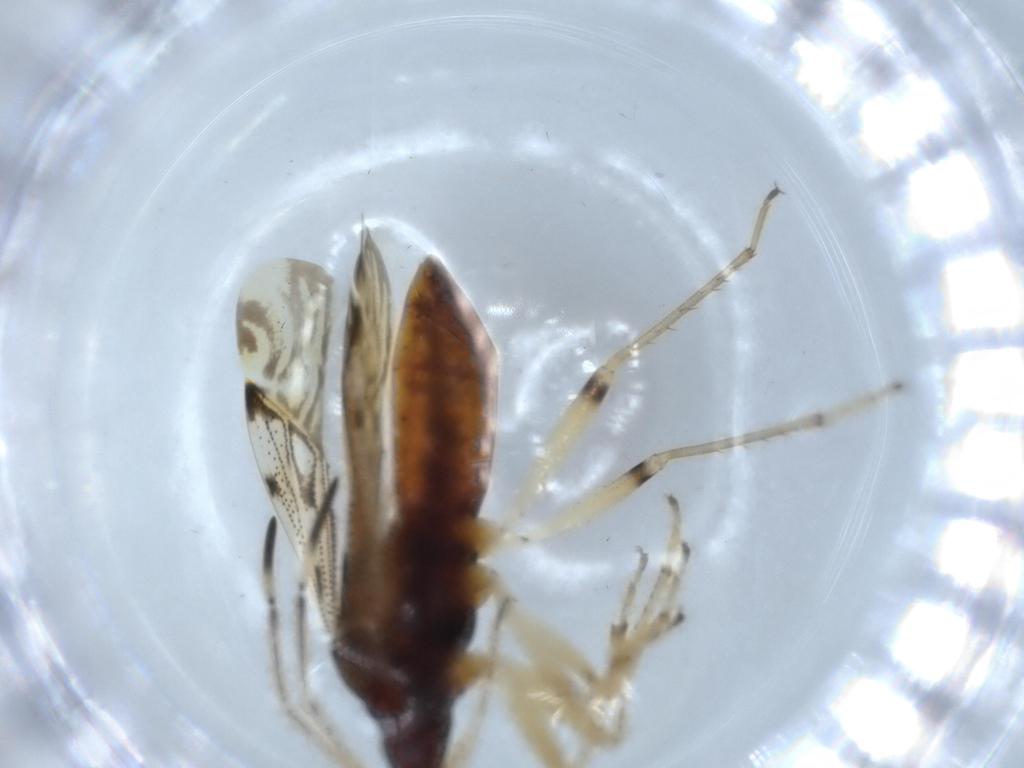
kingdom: Animalia
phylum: Arthropoda
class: Insecta
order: Hemiptera
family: Rhyparochromidae
